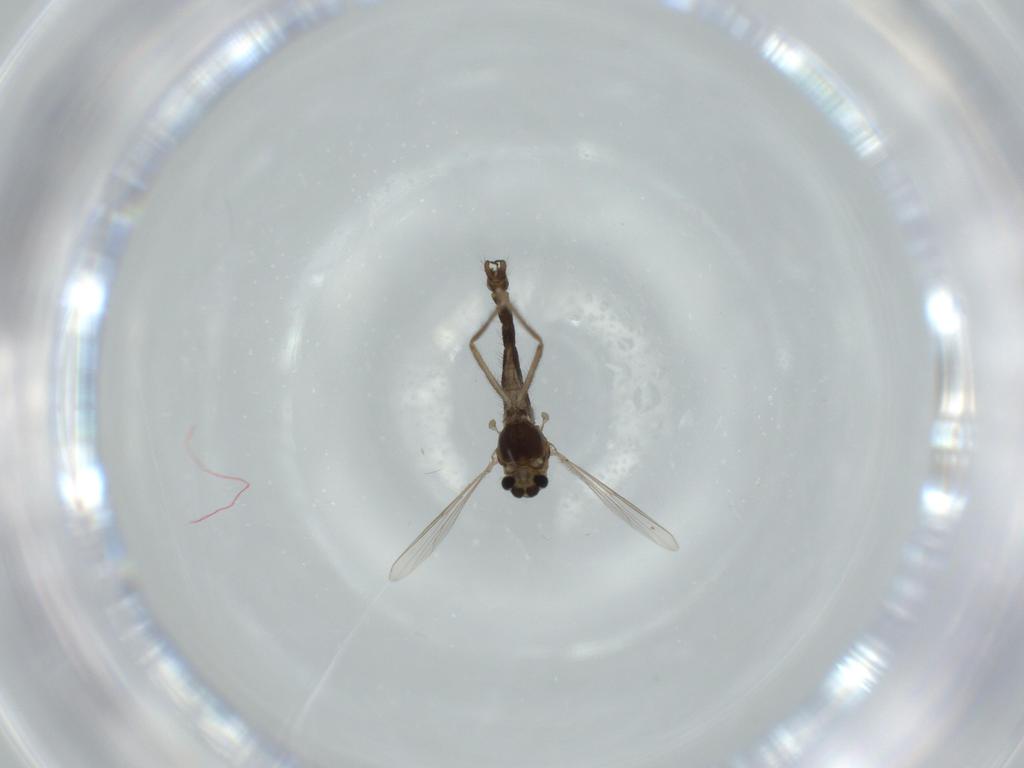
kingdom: Animalia
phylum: Arthropoda
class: Insecta
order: Diptera
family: Chironomidae
